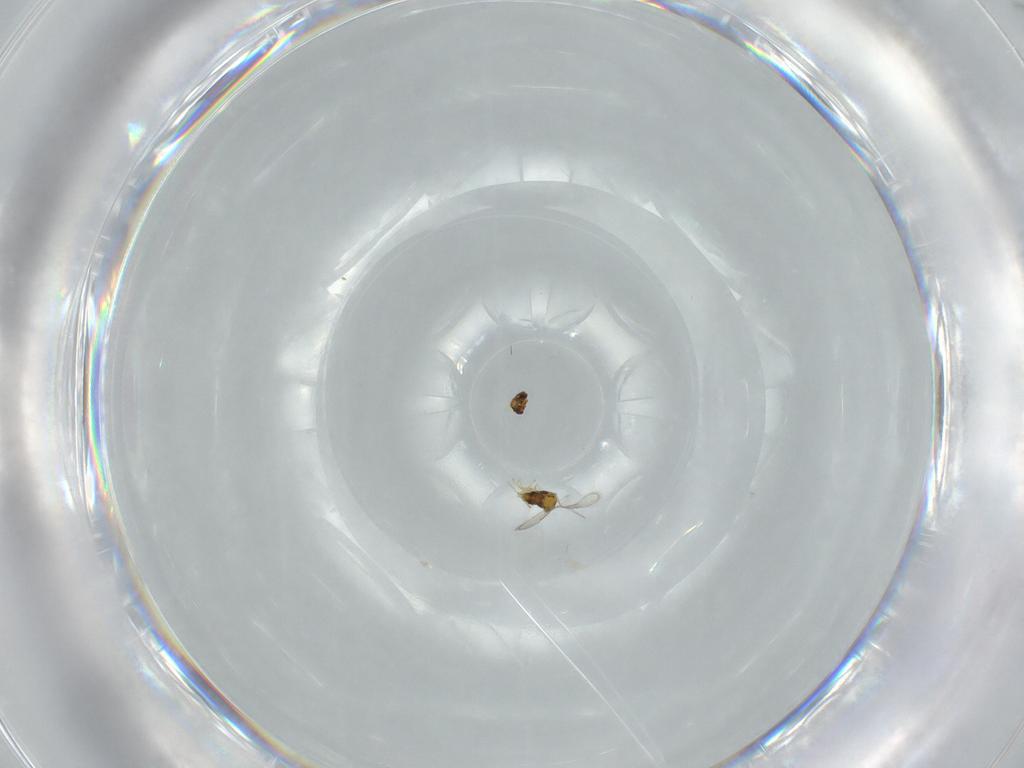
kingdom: Animalia
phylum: Arthropoda
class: Insecta
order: Hymenoptera
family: Aphelinidae
